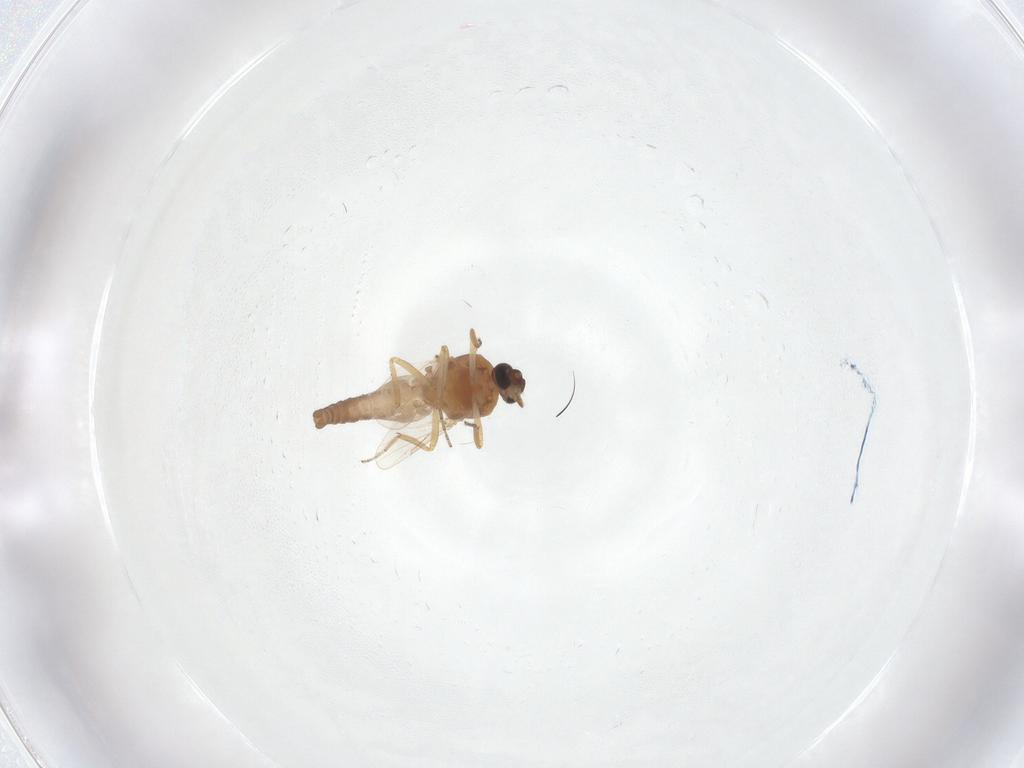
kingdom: Animalia
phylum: Arthropoda
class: Insecta
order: Diptera
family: Ceratopogonidae
